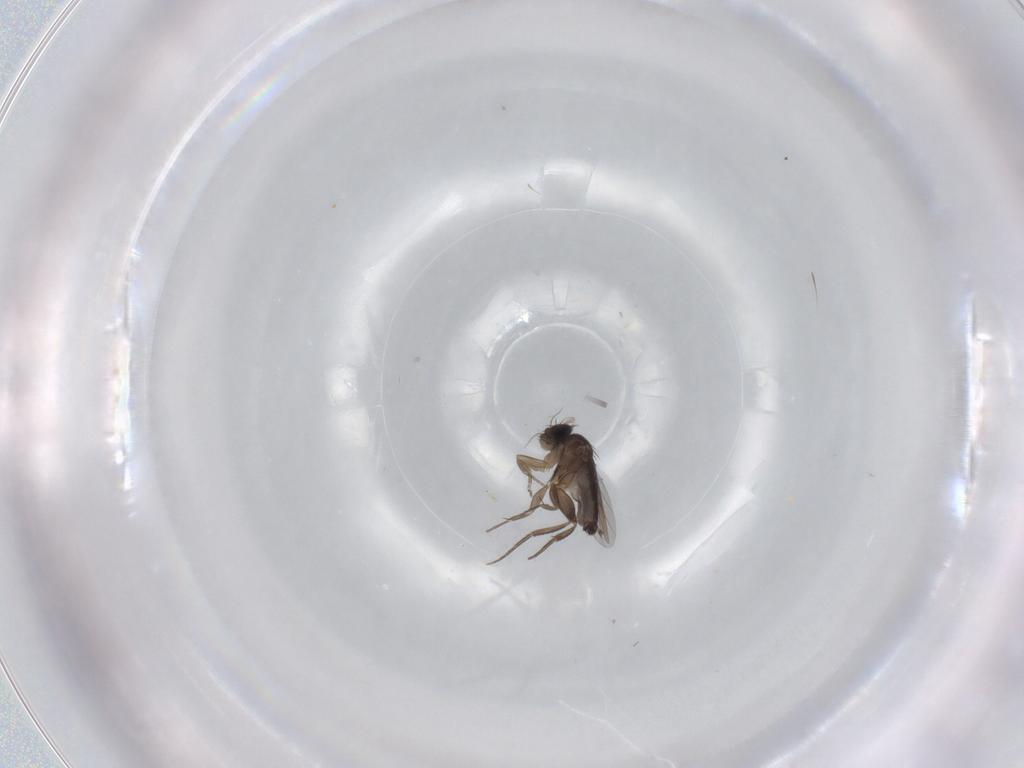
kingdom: Animalia
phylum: Arthropoda
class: Insecta
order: Diptera
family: Phoridae
